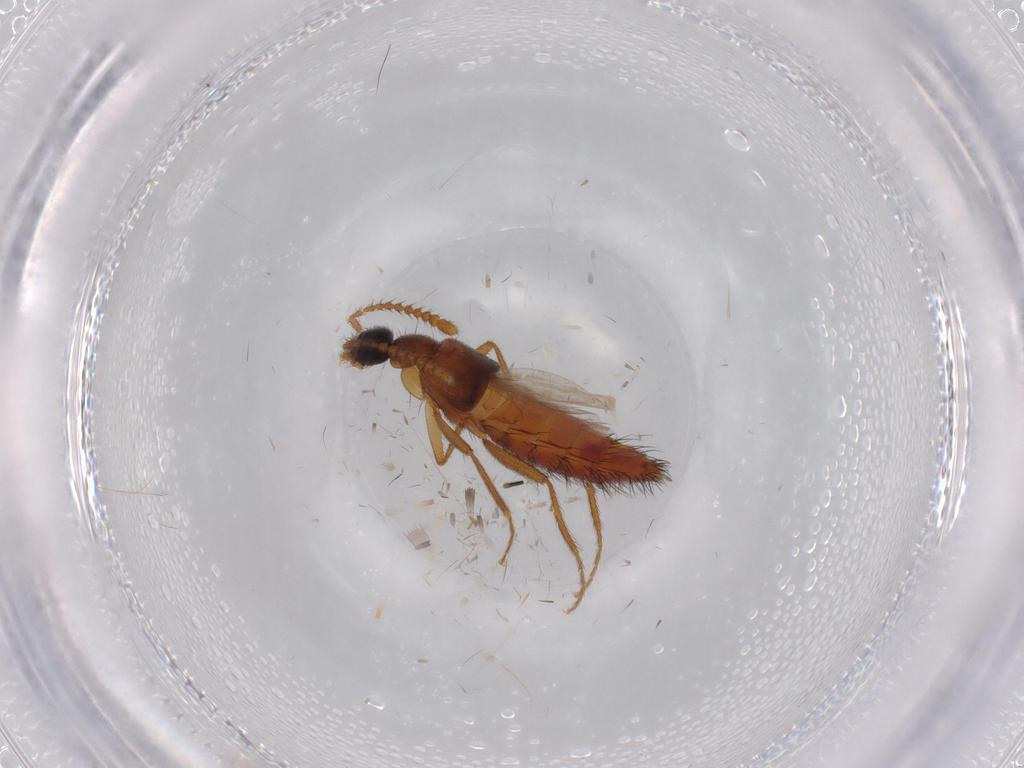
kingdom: Animalia
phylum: Arthropoda
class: Insecta
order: Coleoptera
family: Staphylinidae
